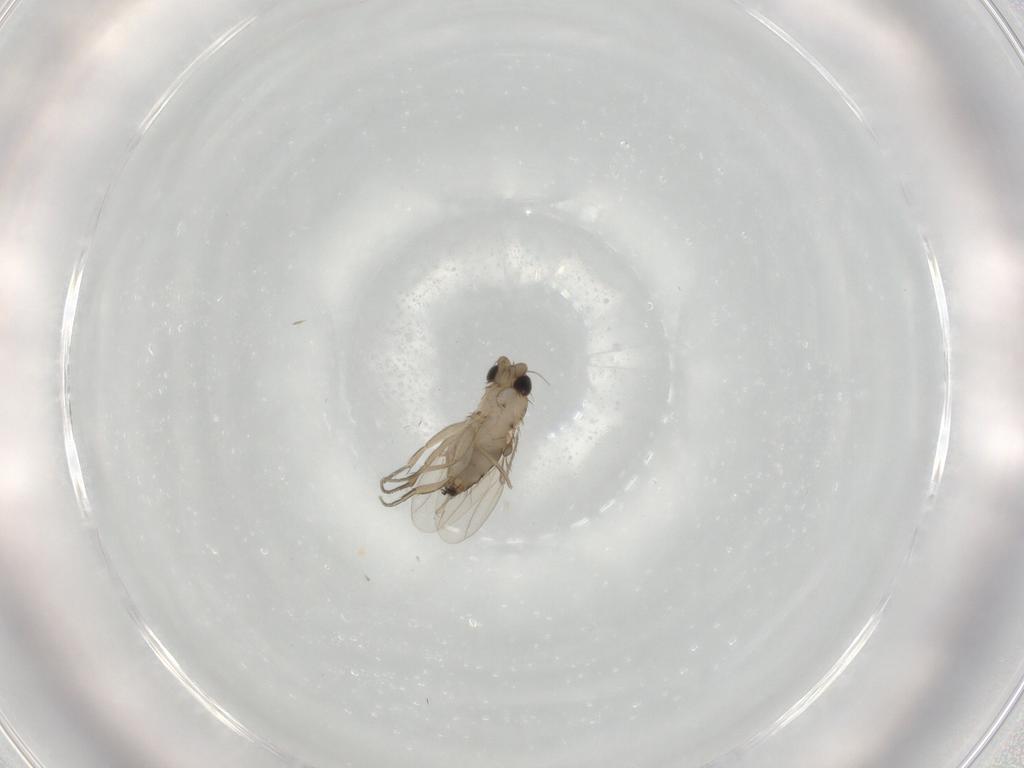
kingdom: Animalia
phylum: Arthropoda
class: Insecta
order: Diptera
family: Phoridae
